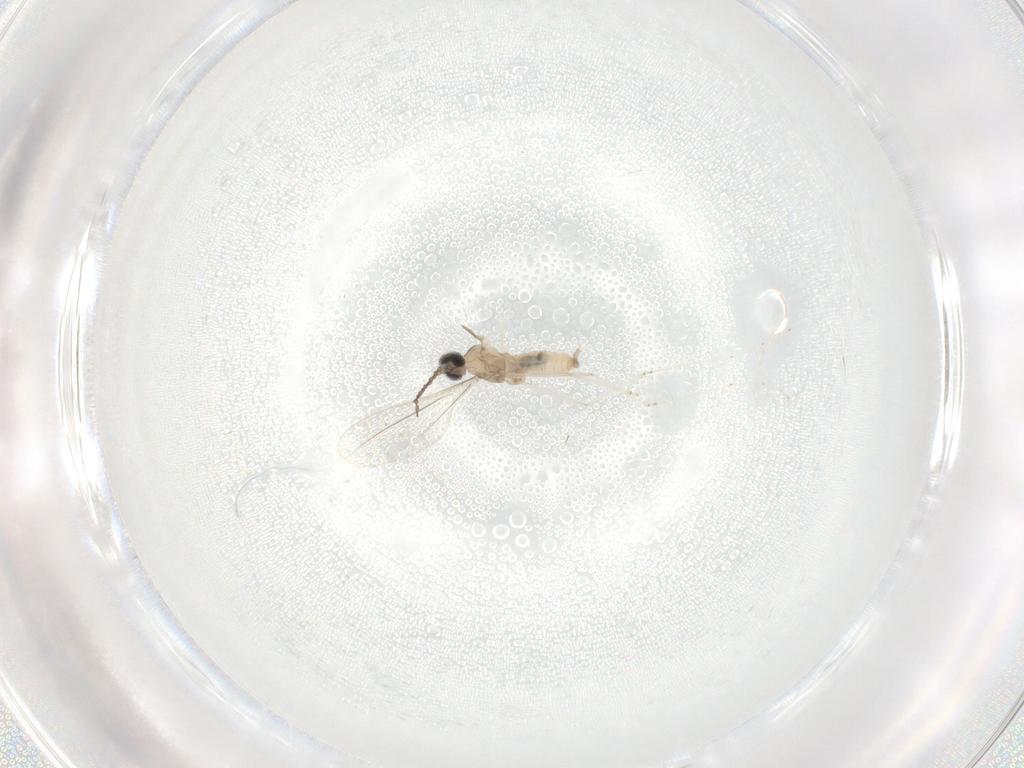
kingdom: Animalia
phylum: Arthropoda
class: Insecta
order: Diptera
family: Cecidomyiidae
